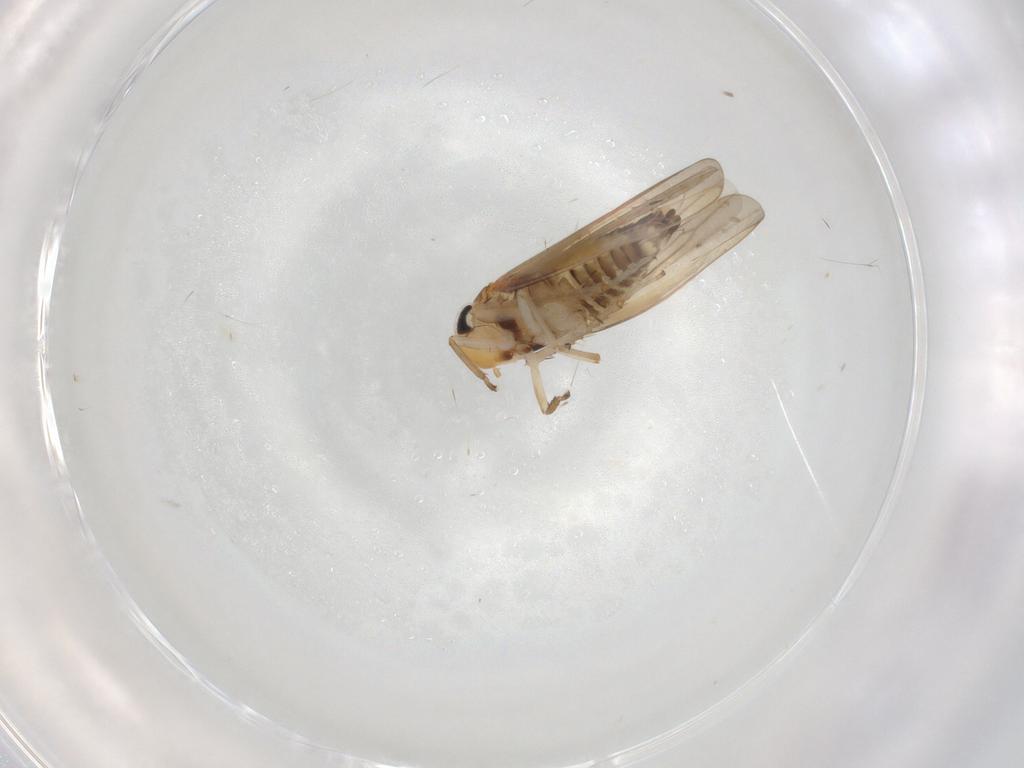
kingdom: Animalia
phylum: Arthropoda
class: Insecta
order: Hemiptera
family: Cicadellidae
